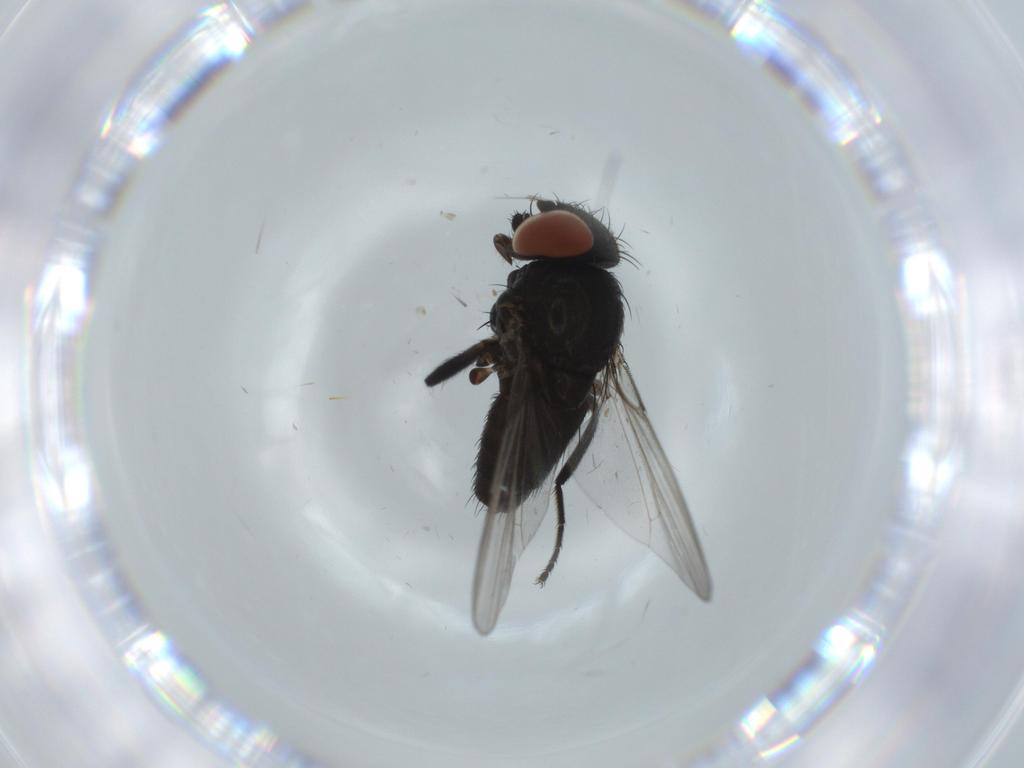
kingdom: Animalia
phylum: Arthropoda
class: Insecta
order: Diptera
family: Milichiidae
